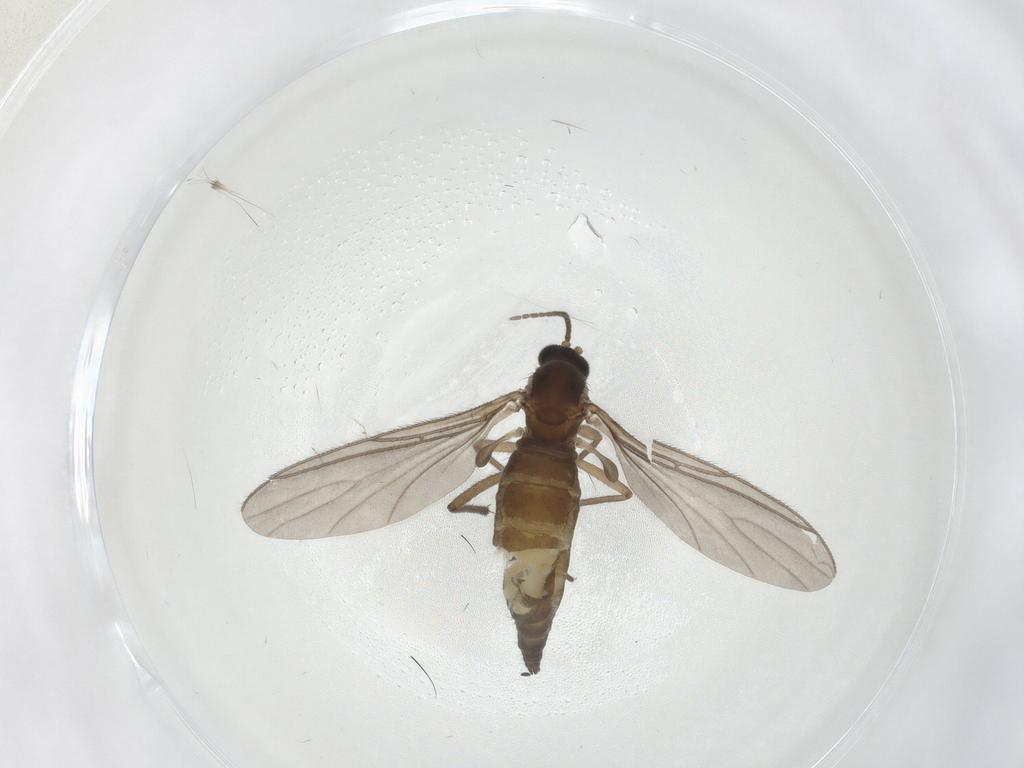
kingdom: Animalia
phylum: Arthropoda
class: Insecta
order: Diptera
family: Sciaridae
